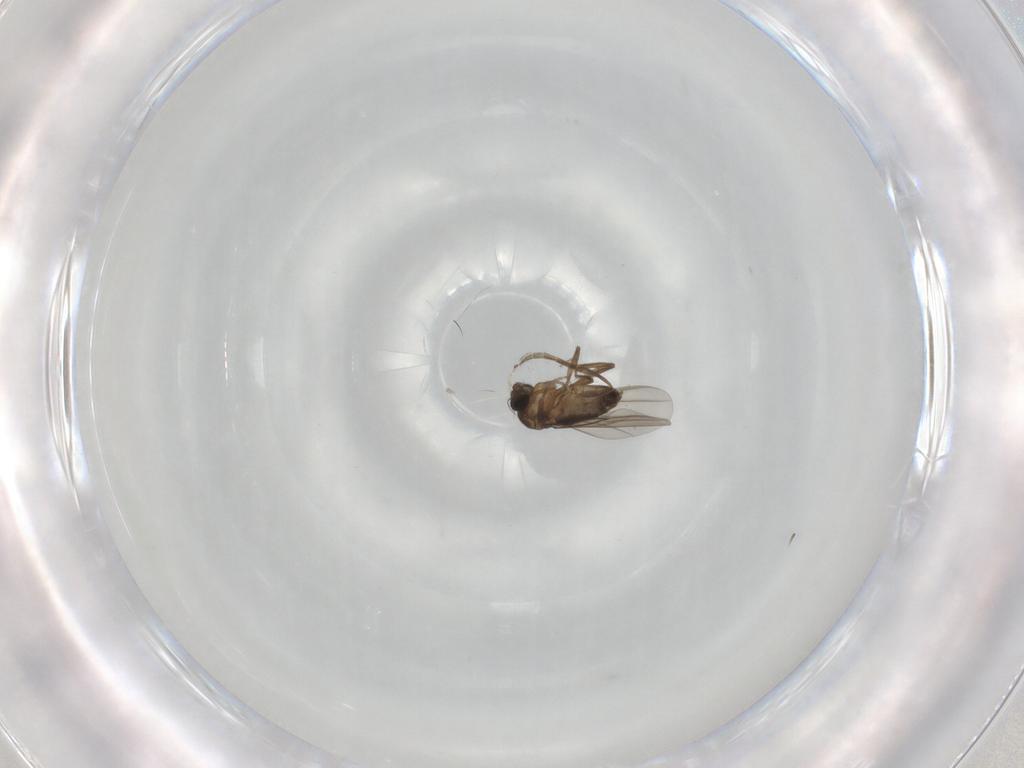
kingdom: Animalia
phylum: Arthropoda
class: Insecta
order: Diptera
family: Phoridae
